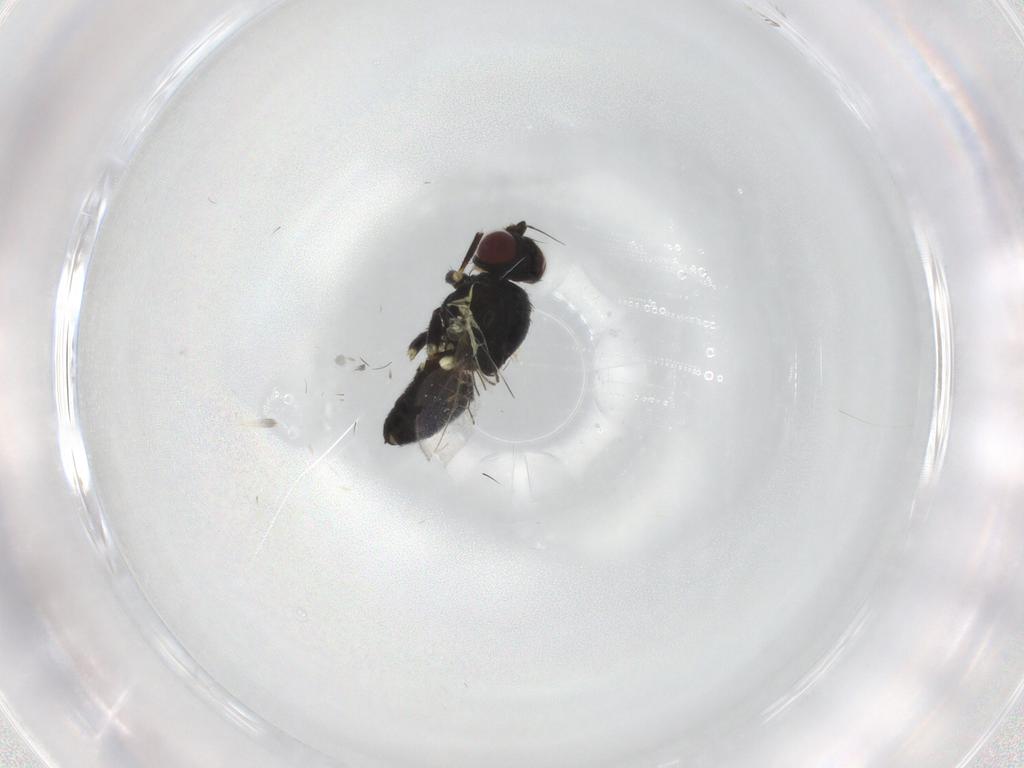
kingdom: Animalia
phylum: Arthropoda
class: Insecta
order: Diptera
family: Agromyzidae
